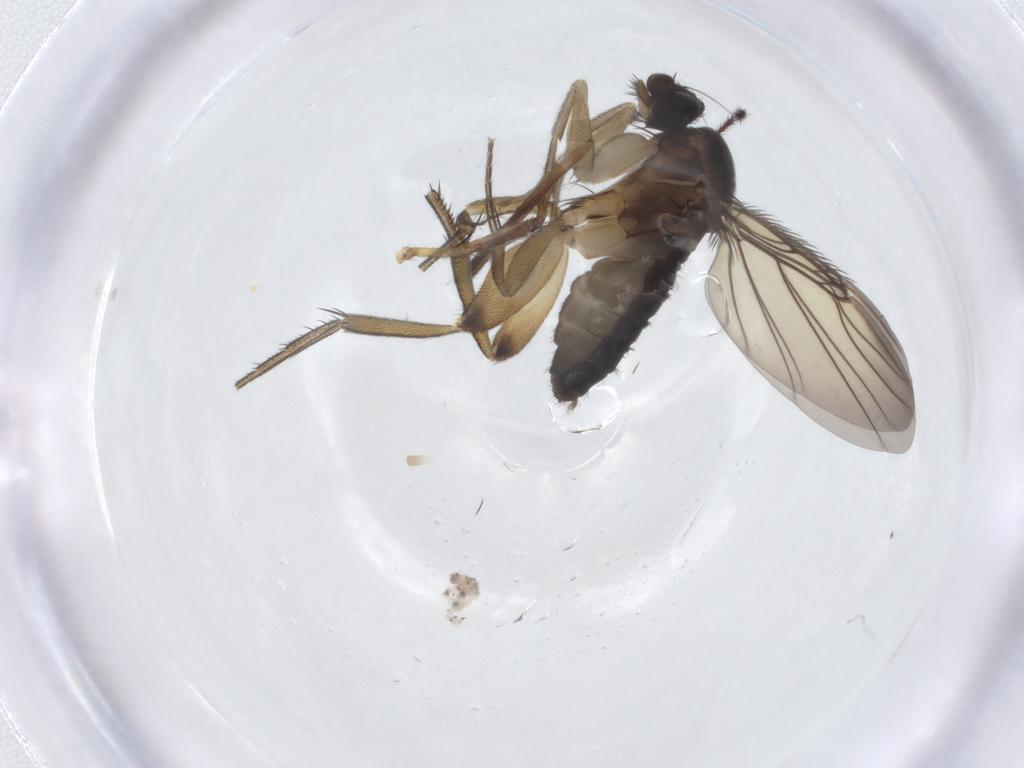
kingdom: Animalia
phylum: Arthropoda
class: Insecta
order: Diptera
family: Phoridae
